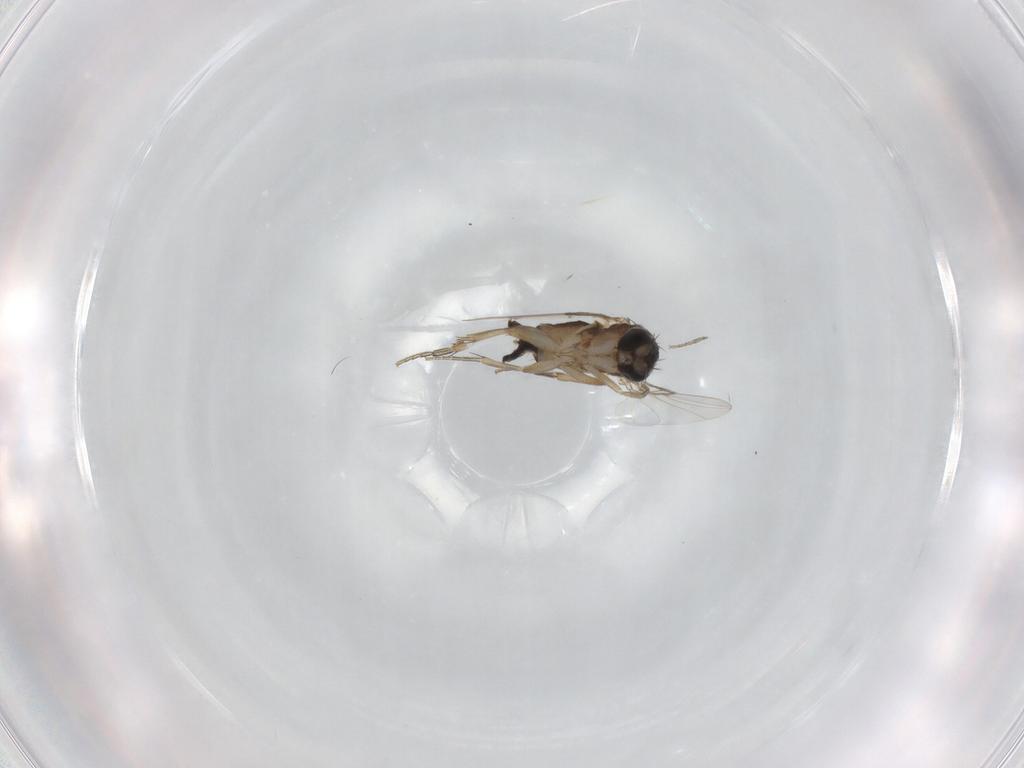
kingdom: Animalia
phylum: Arthropoda
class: Insecta
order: Diptera
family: Phoridae
